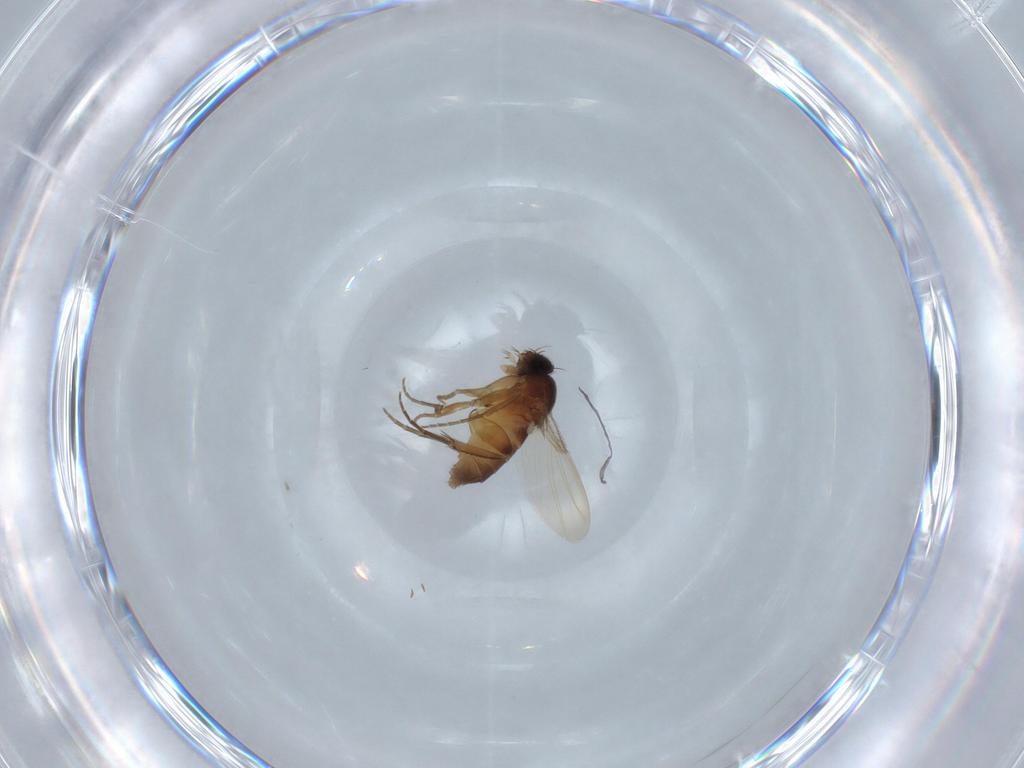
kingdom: Animalia
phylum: Arthropoda
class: Insecta
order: Diptera
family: Phoridae
